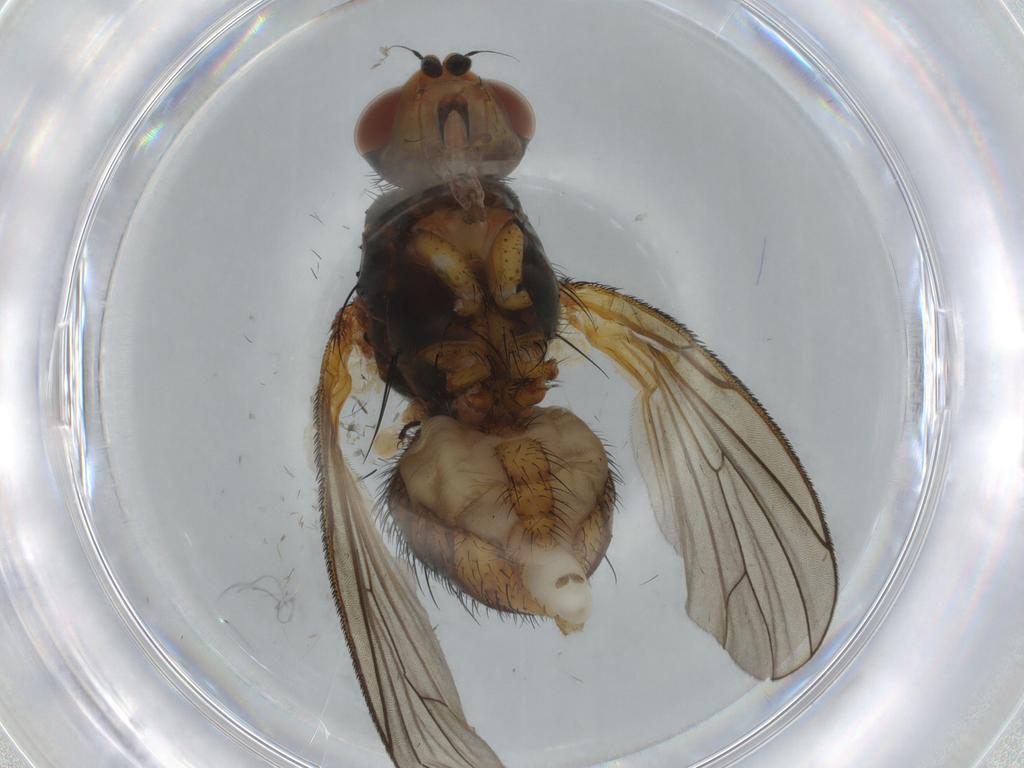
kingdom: Animalia
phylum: Arthropoda
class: Insecta
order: Diptera
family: Anthomyiidae
